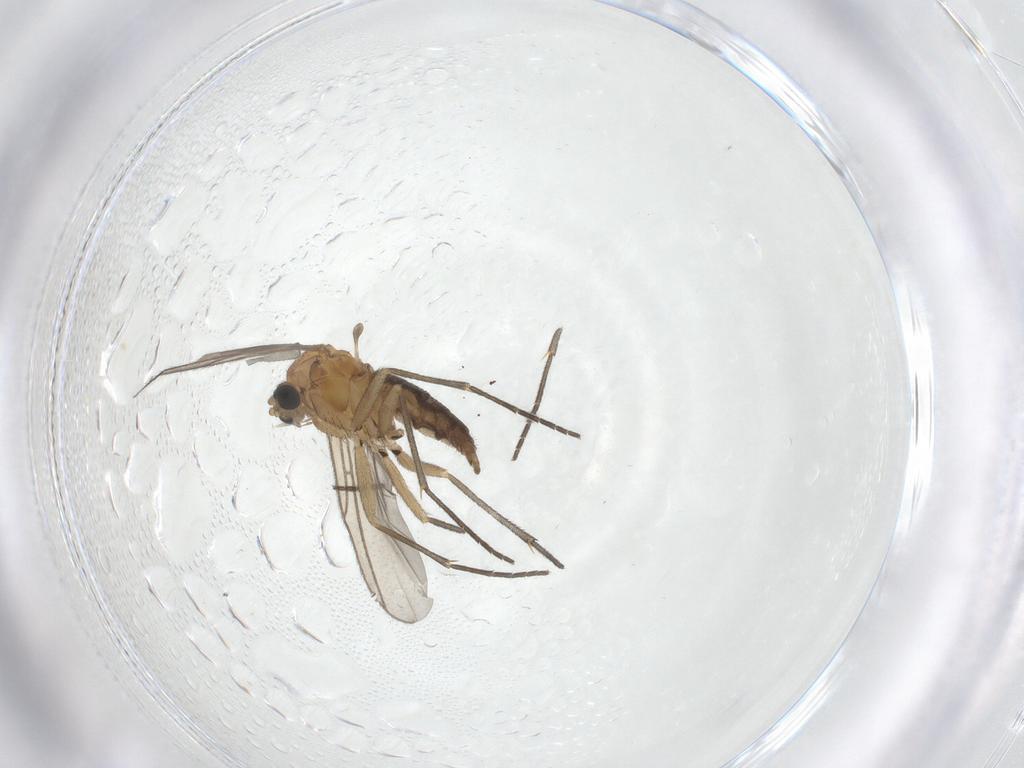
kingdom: Animalia
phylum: Arthropoda
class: Insecta
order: Diptera
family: Sciaridae
